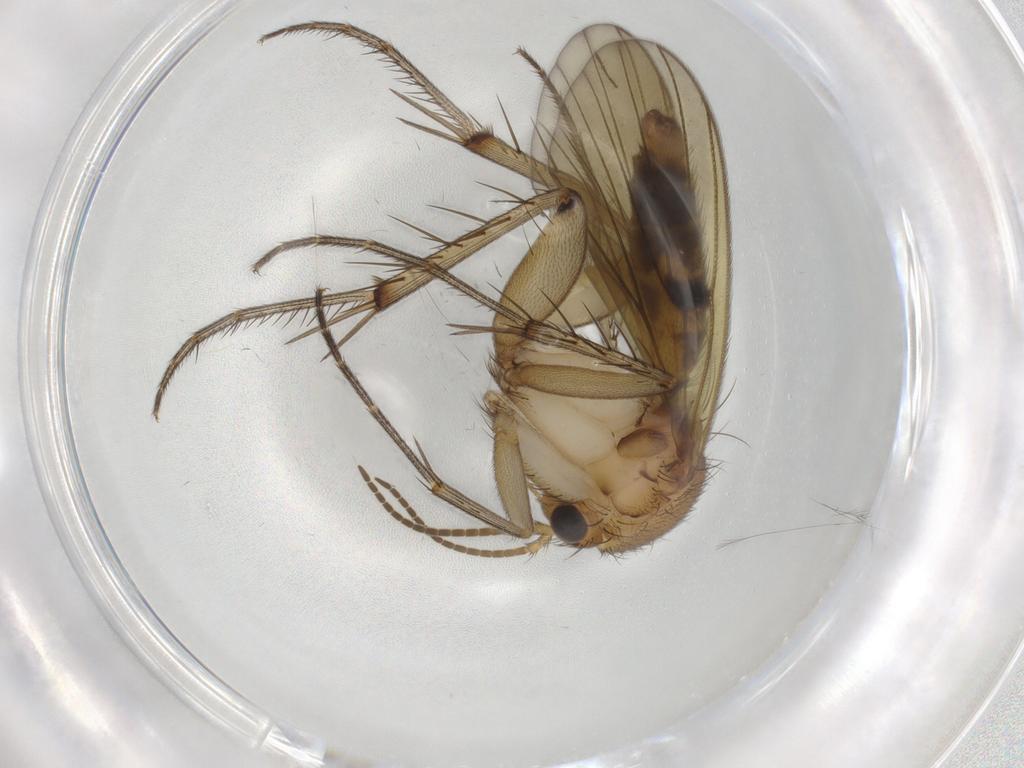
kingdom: Animalia
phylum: Arthropoda
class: Insecta
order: Diptera
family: Mycetophilidae
